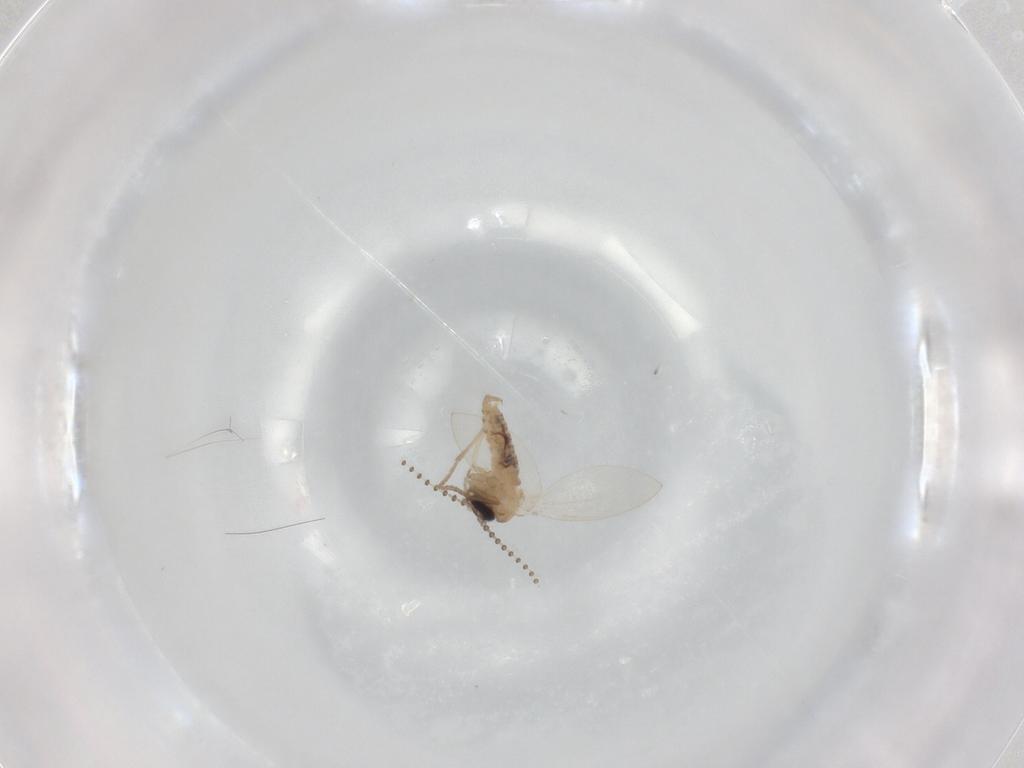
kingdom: Animalia
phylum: Arthropoda
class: Insecta
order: Diptera
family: Psychodidae
